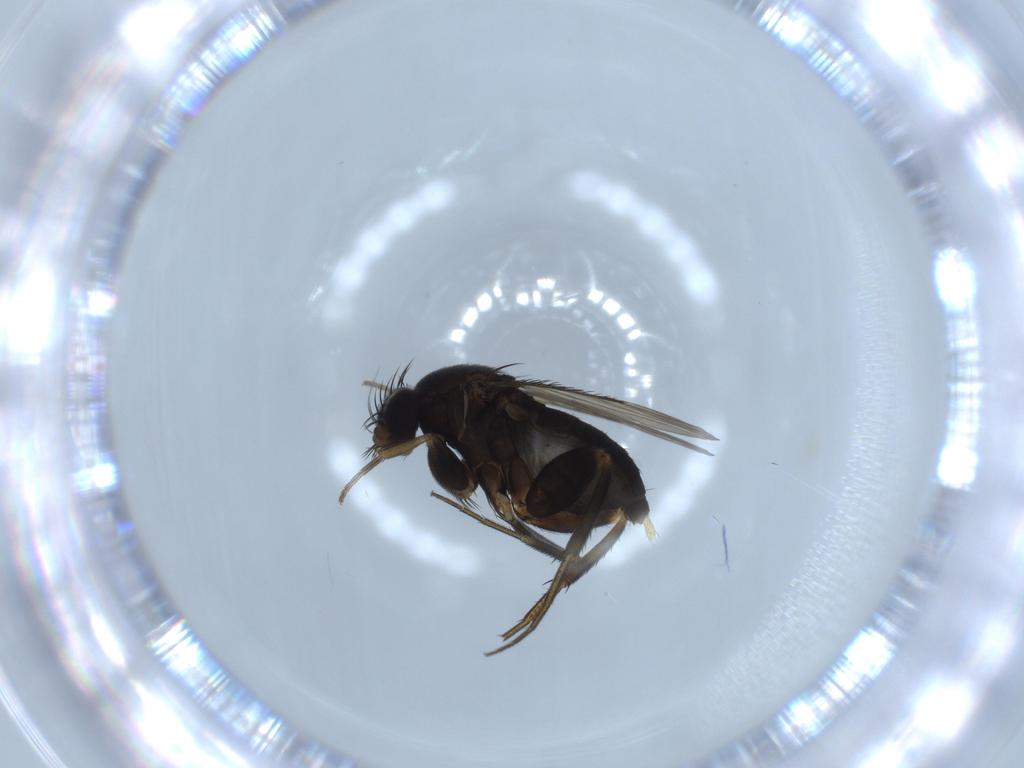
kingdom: Animalia
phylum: Arthropoda
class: Insecta
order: Diptera
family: Phoridae
